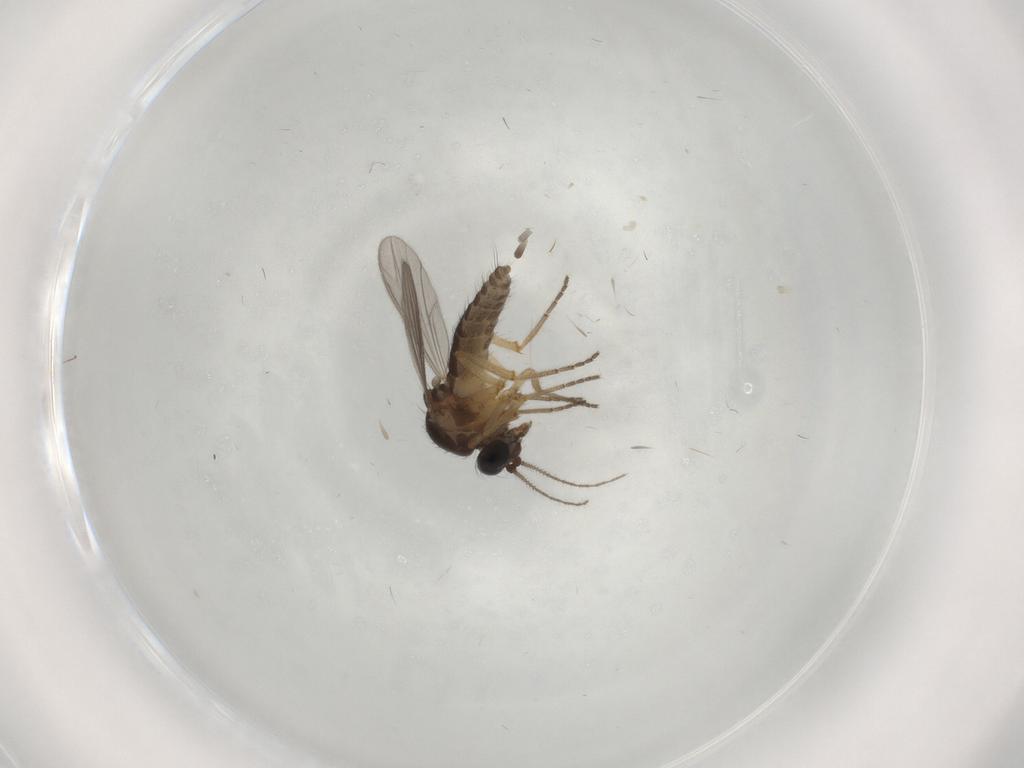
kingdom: Animalia
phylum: Arthropoda
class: Insecta
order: Diptera
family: Ceratopogonidae
